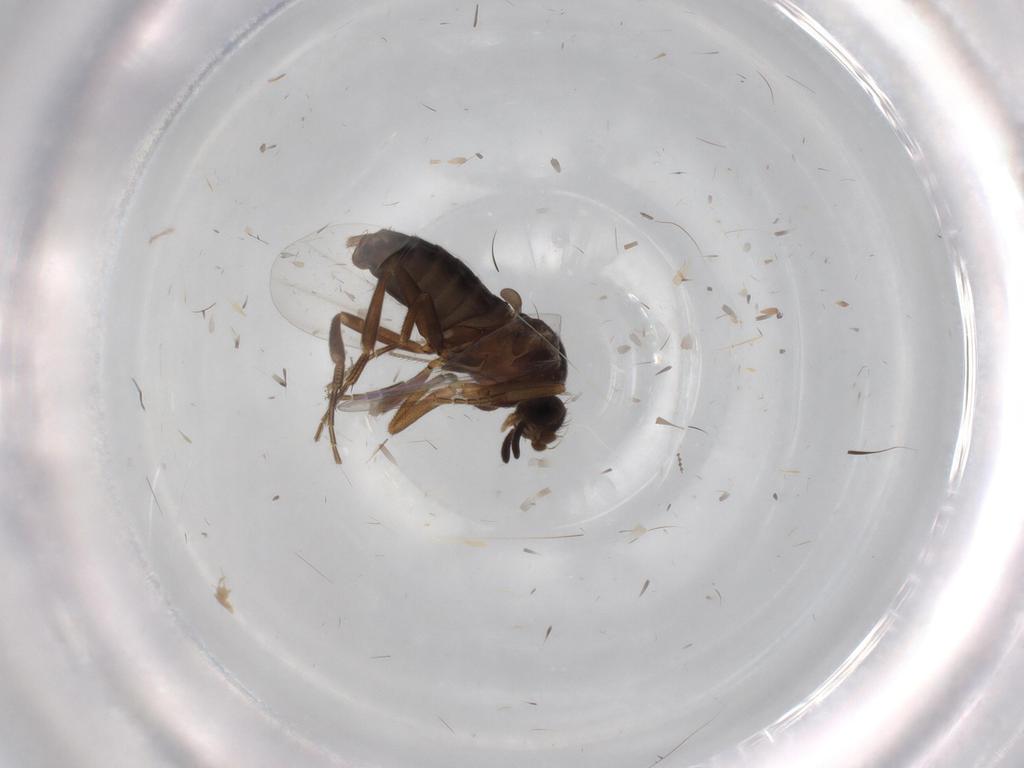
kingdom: Animalia
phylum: Arthropoda
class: Insecta
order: Diptera
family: Phoridae
